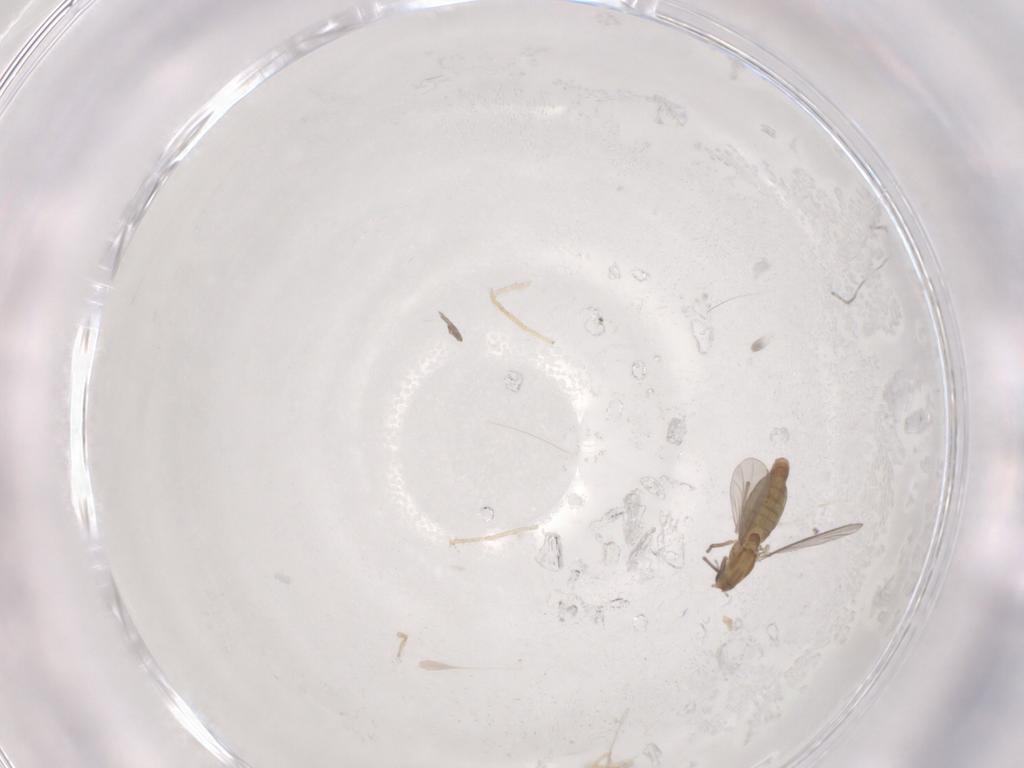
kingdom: Animalia
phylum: Arthropoda
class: Insecta
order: Diptera
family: Chironomidae
